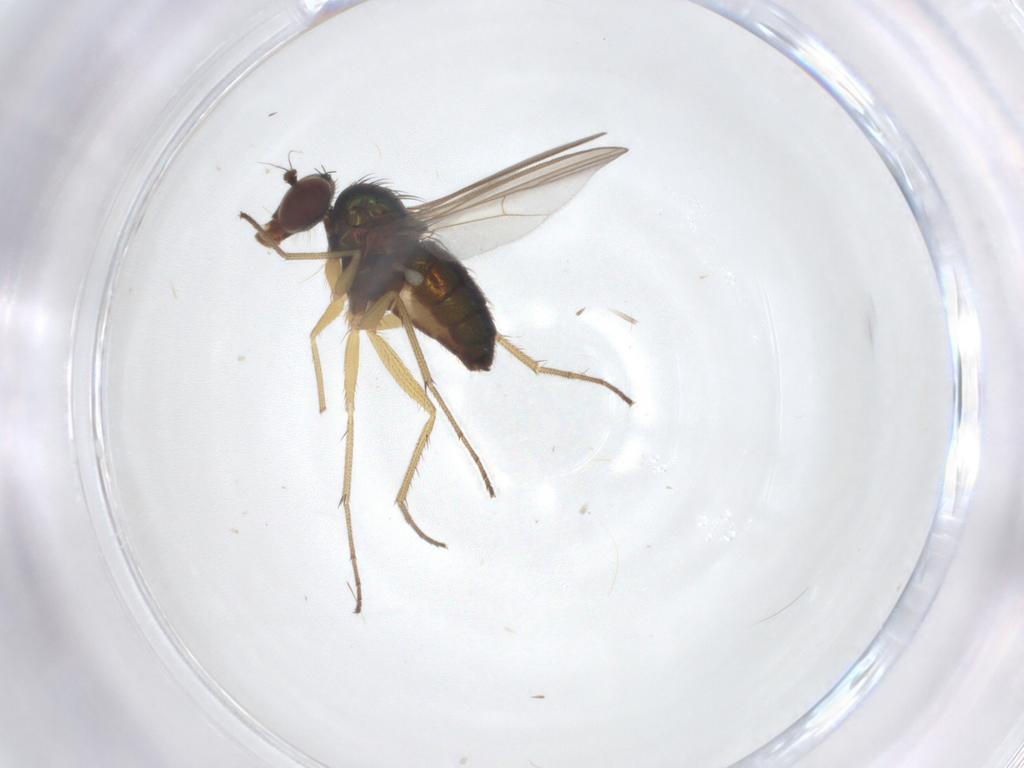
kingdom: Animalia
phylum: Arthropoda
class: Insecta
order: Diptera
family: Dolichopodidae
